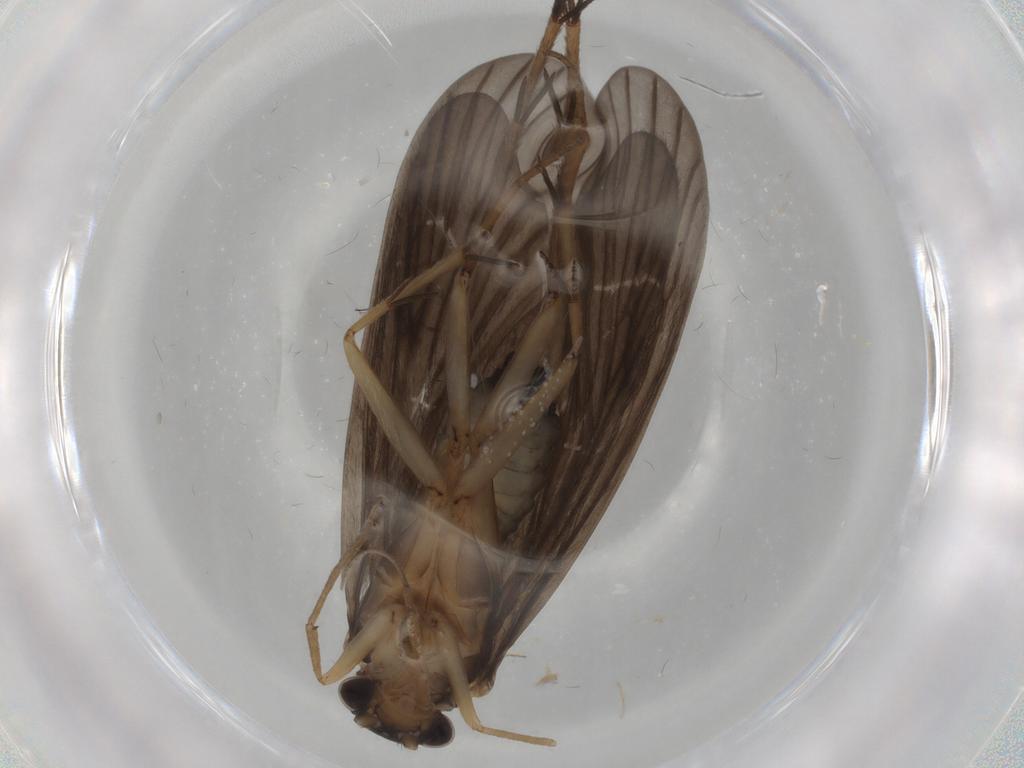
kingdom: Animalia
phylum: Arthropoda
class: Insecta
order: Trichoptera
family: Philopotamidae
